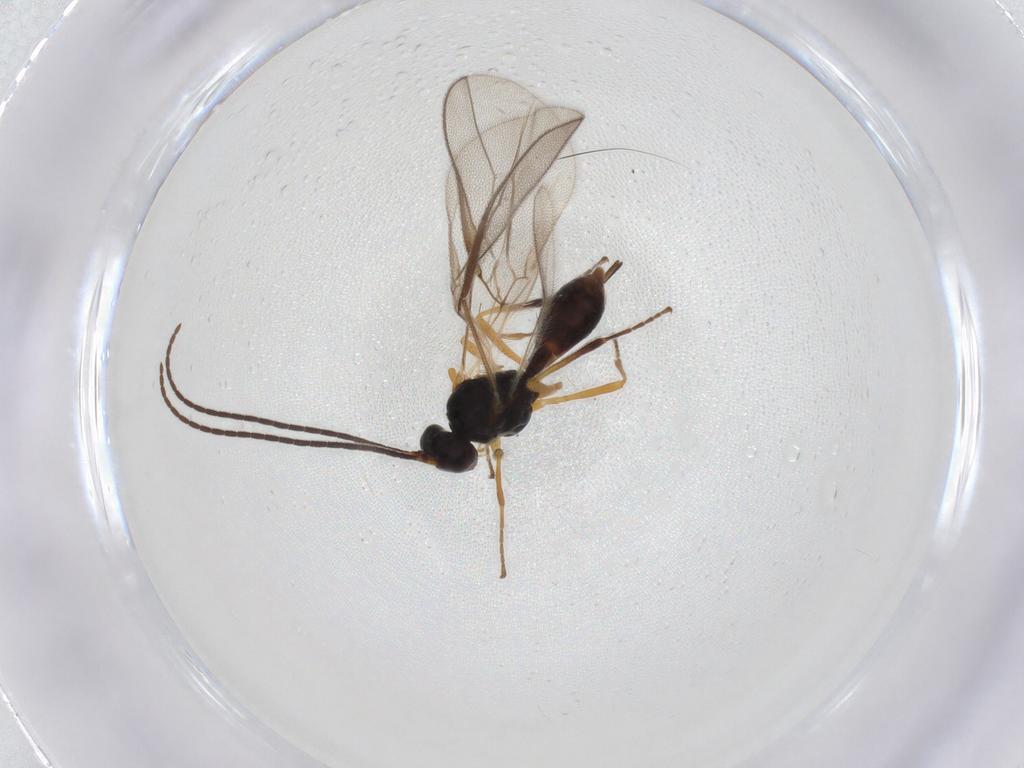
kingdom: Animalia
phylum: Arthropoda
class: Insecta
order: Hymenoptera
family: Braconidae
